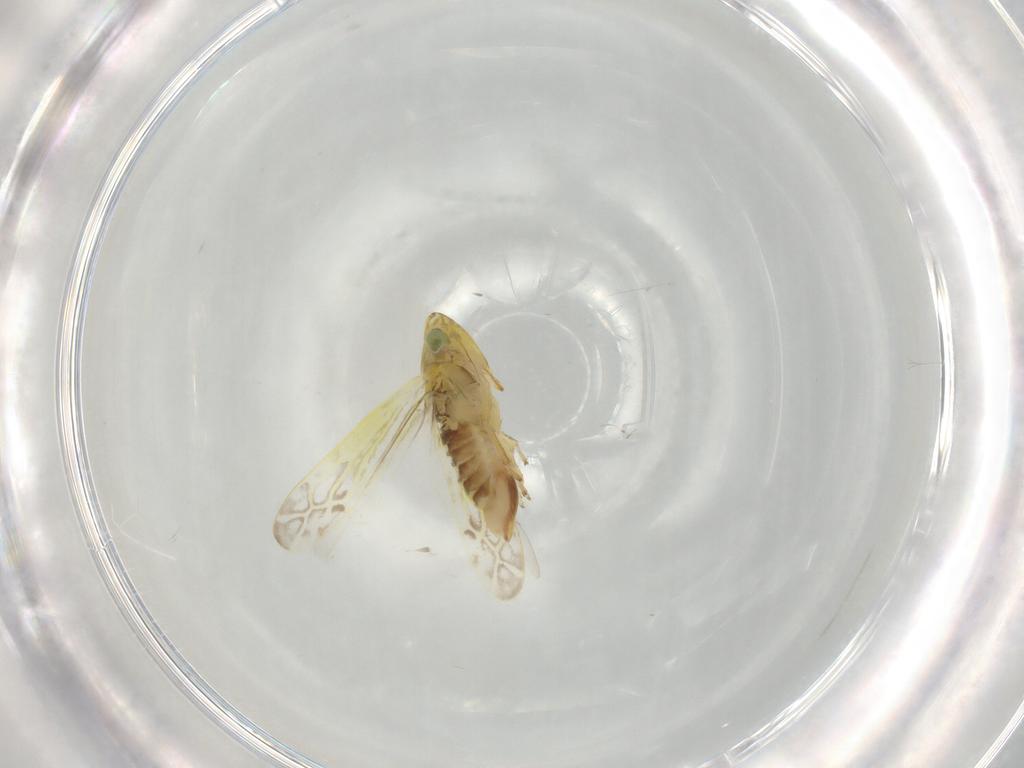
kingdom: Animalia
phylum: Arthropoda
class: Insecta
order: Hemiptera
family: Cicadellidae
